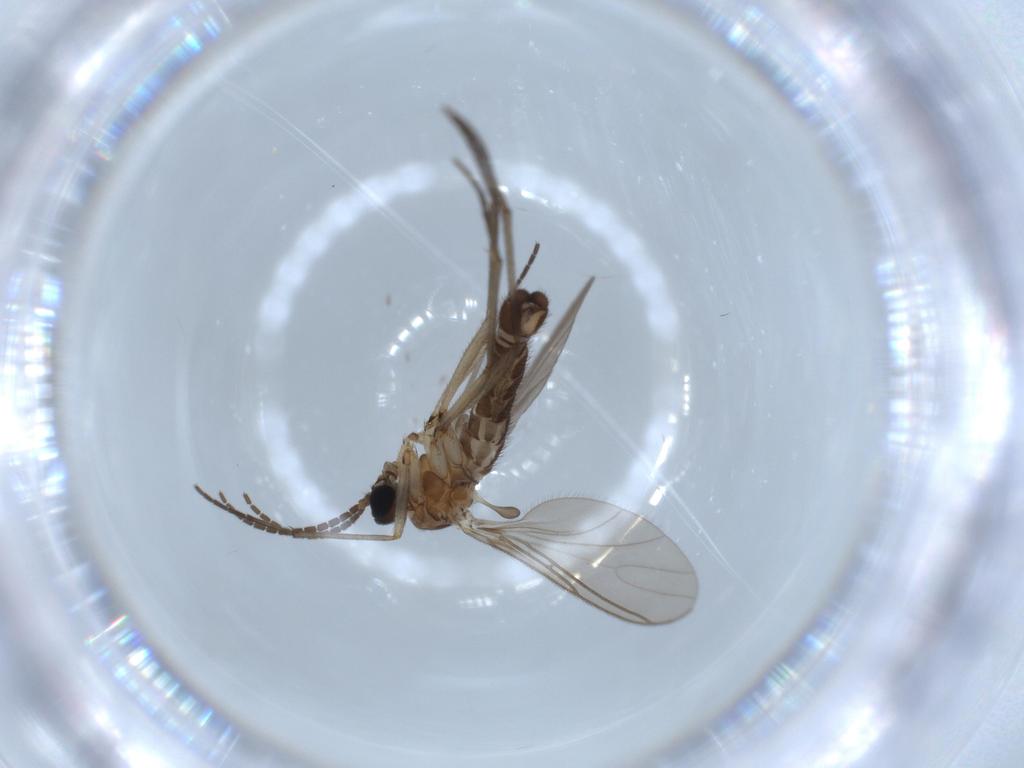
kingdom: Animalia
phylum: Arthropoda
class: Insecta
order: Diptera
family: Sciaridae
